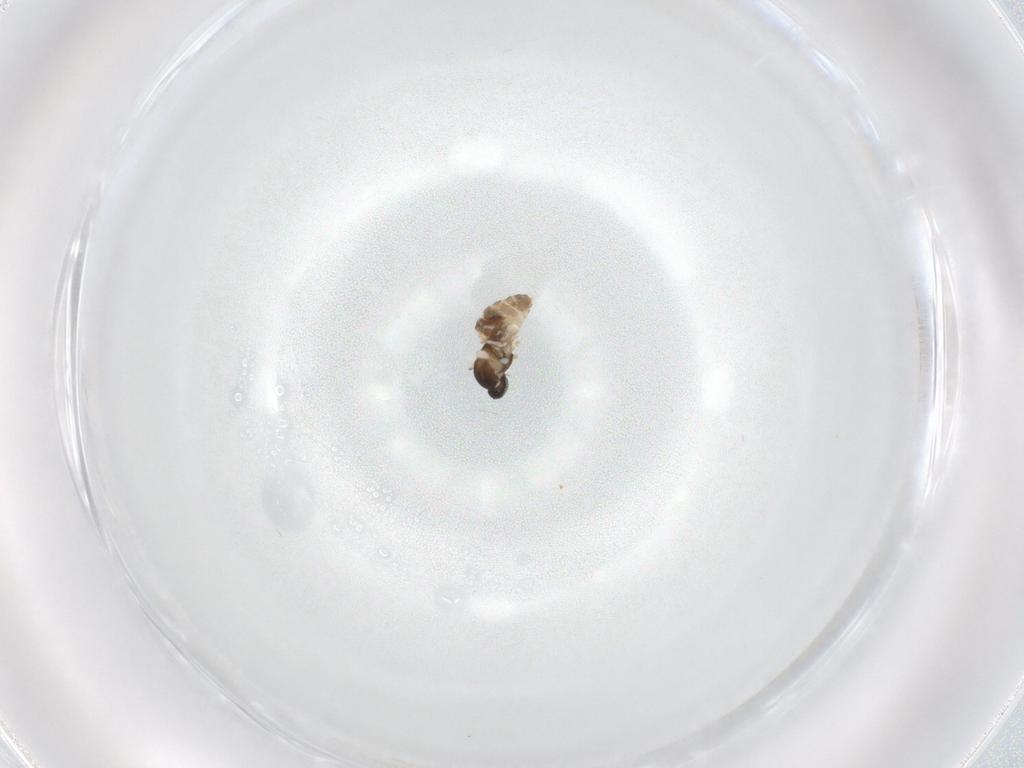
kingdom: Animalia
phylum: Arthropoda
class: Insecta
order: Diptera
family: Cecidomyiidae
